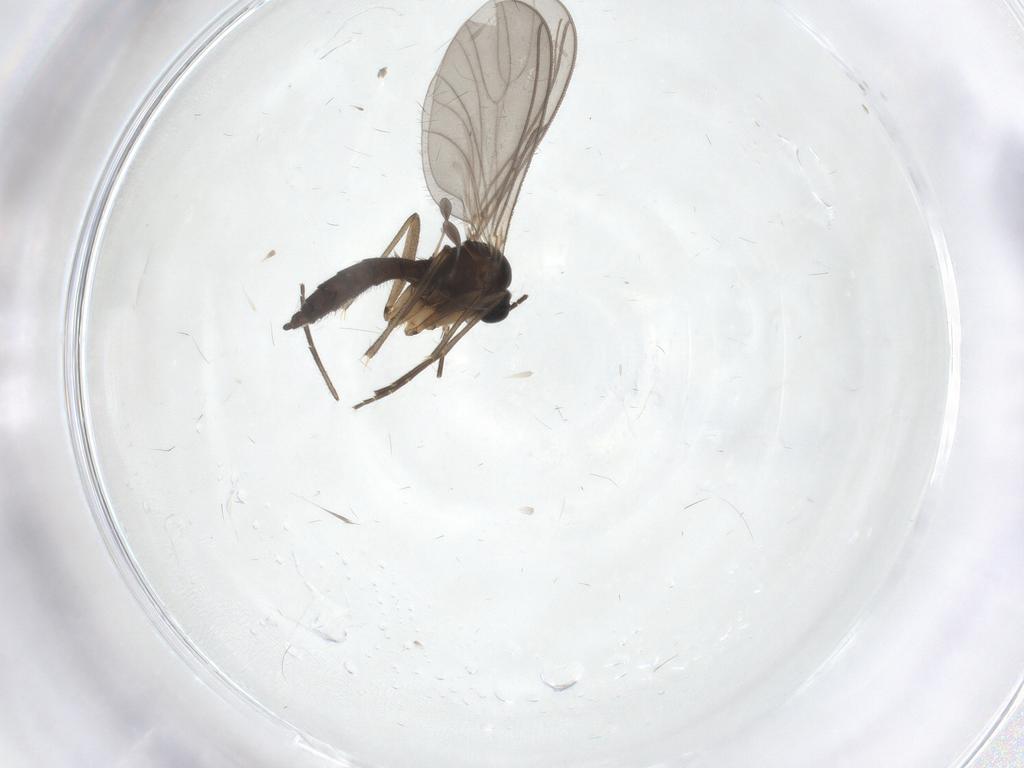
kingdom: Animalia
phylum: Arthropoda
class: Insecta
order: Diptera
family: Sciaridae
